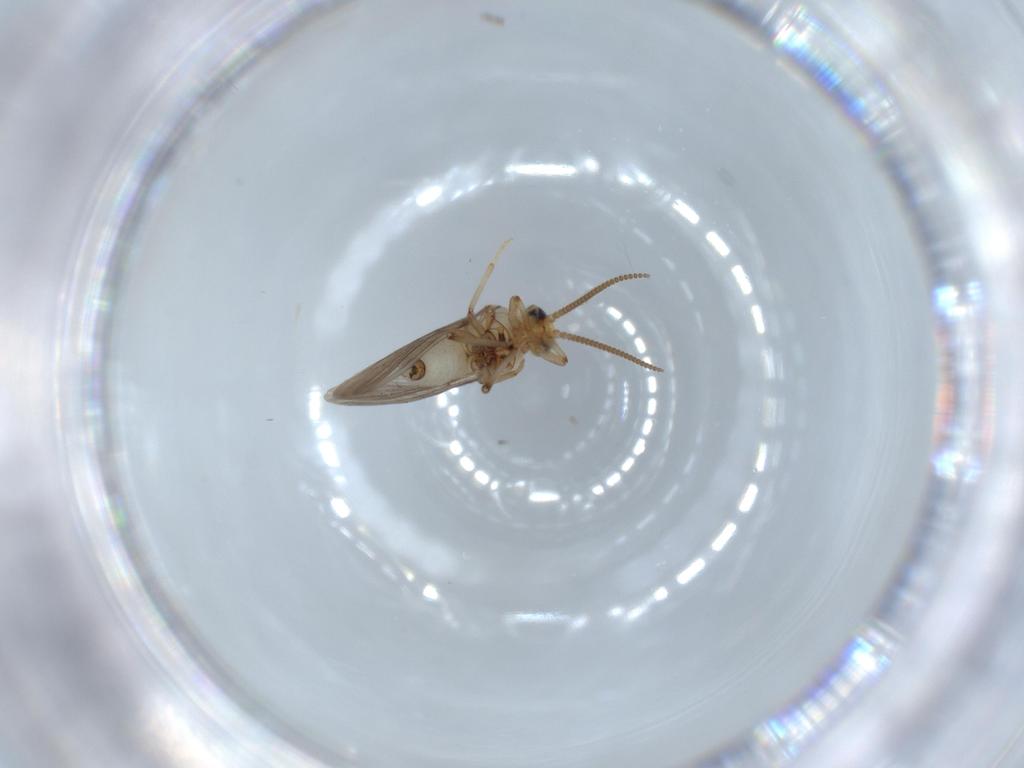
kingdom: Animalia
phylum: Arthropoda
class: Insecta
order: Neuroptera
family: Coniopterygidae
